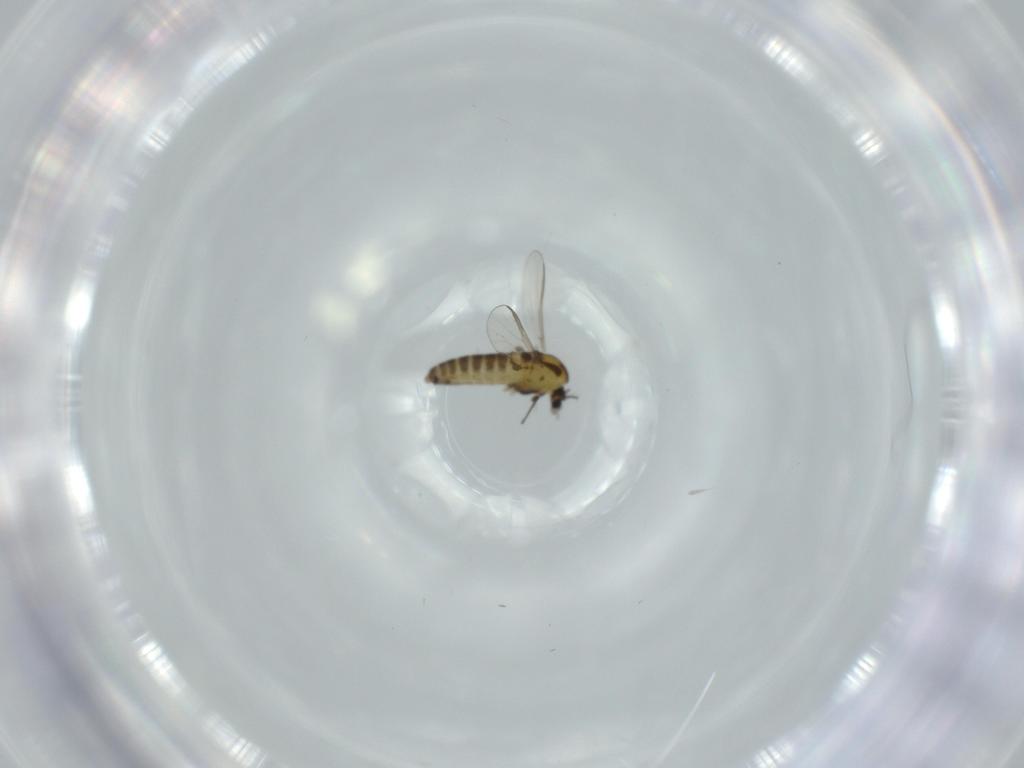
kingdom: Animalia
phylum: Arthropoda
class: Insecta
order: Diptera
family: Chironomidae
